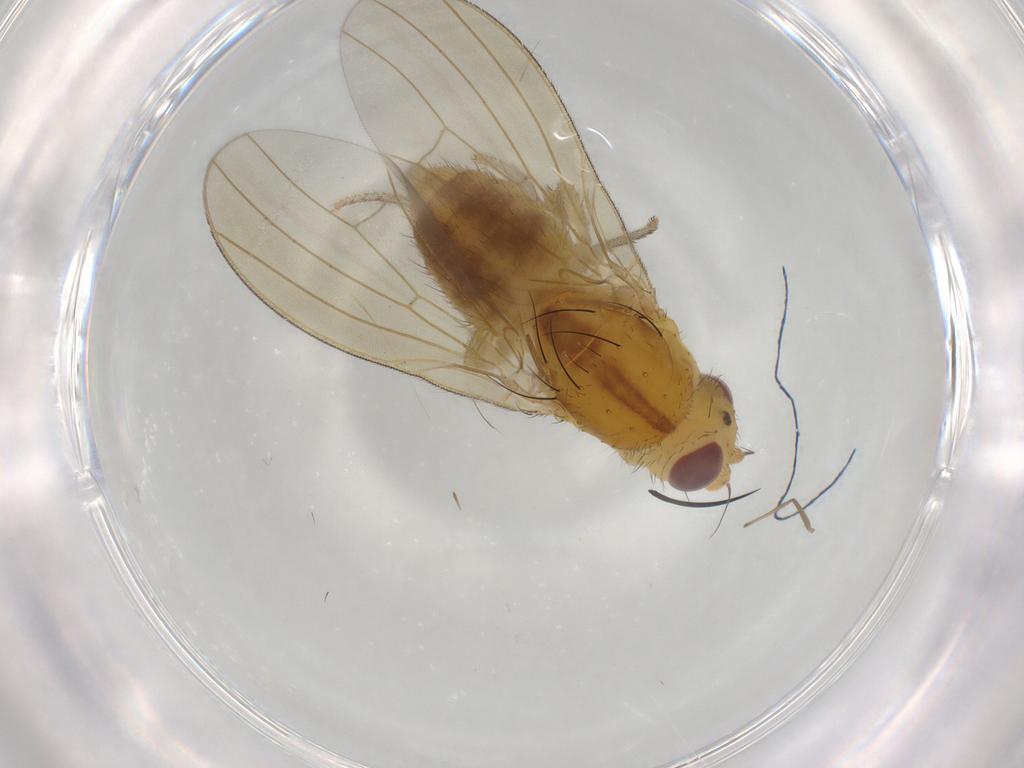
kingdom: Animalia
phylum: Arthropoda
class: Insecta
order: Diptera
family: Chironomidae
